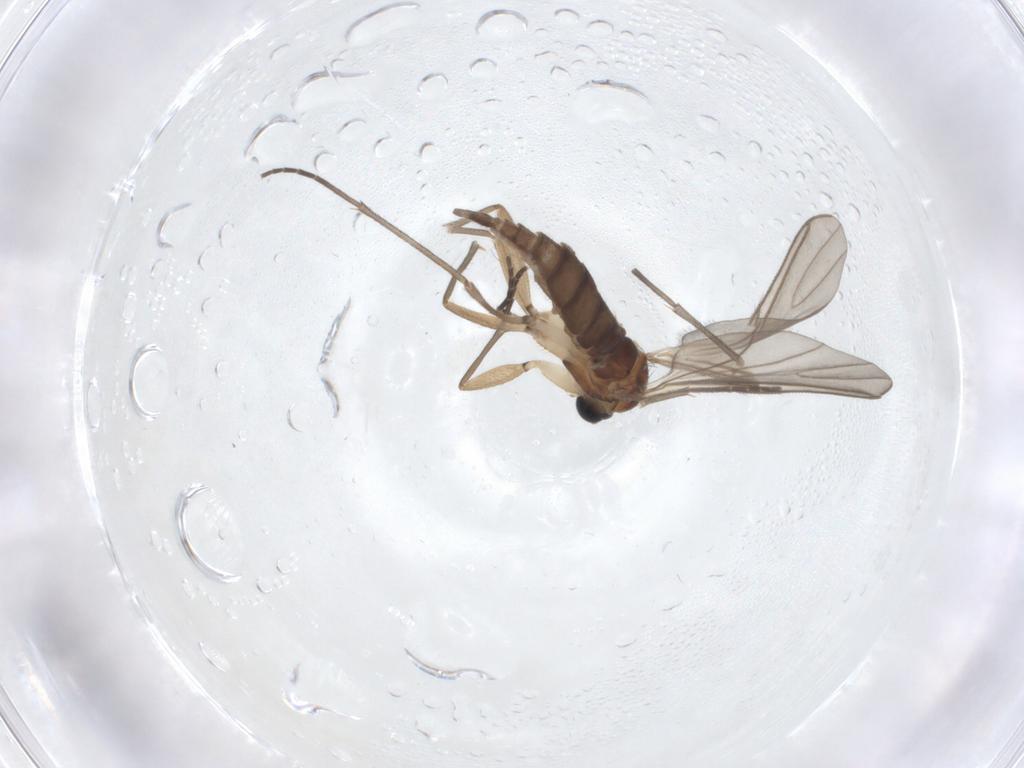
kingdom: Animalia
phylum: Arthropoda
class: Insecta
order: Diptera
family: Sciaridae
